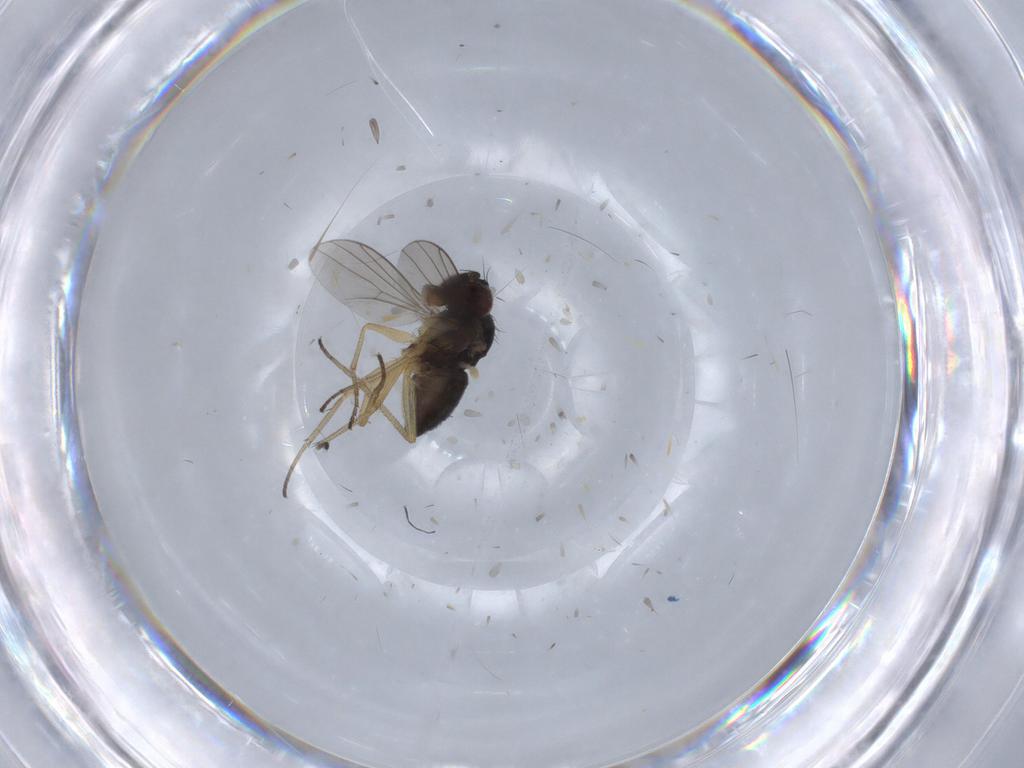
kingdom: Animalia
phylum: Arthropoda
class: Insecta
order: Diptera
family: Dolichopodidae
